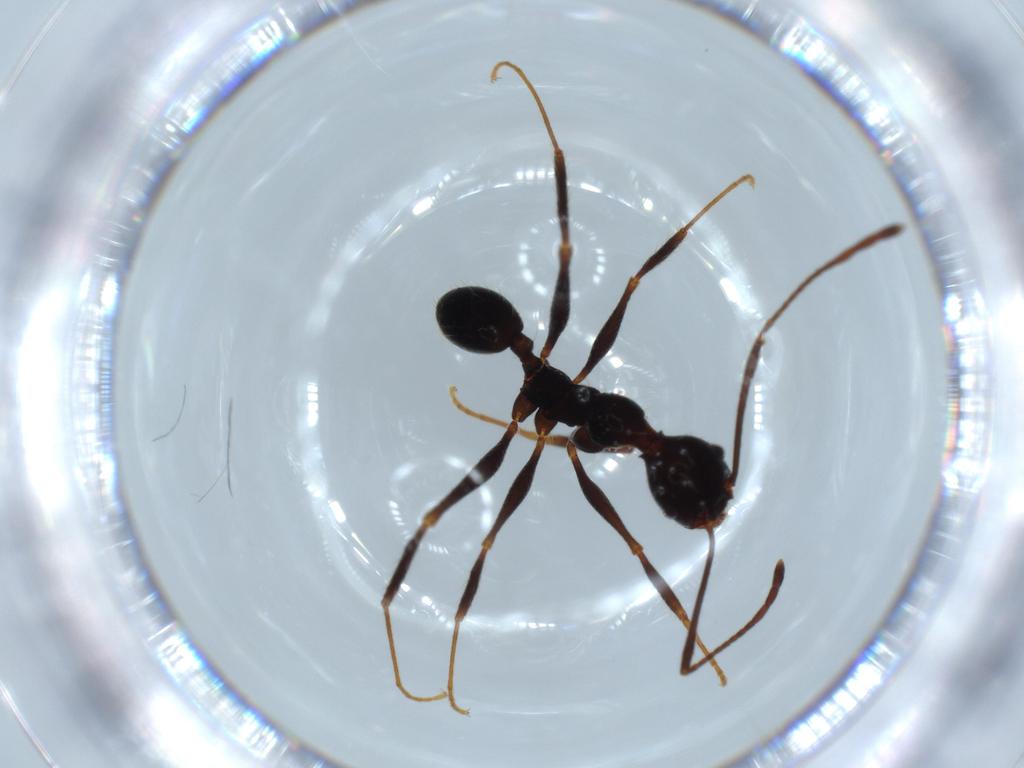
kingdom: Animalia
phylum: Arthropoda
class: Insecta
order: Hymenoptera
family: Formicidae
